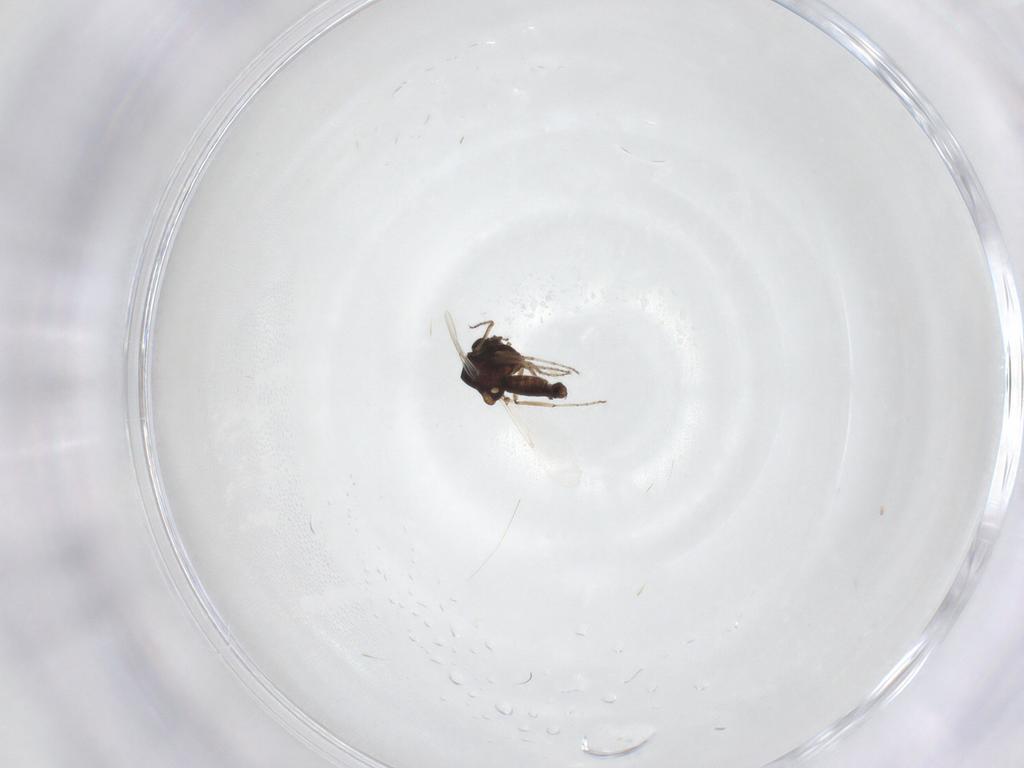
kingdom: Animalia
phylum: Arthropoda
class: Insecta
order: Diptera
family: Ceratopogonidae
